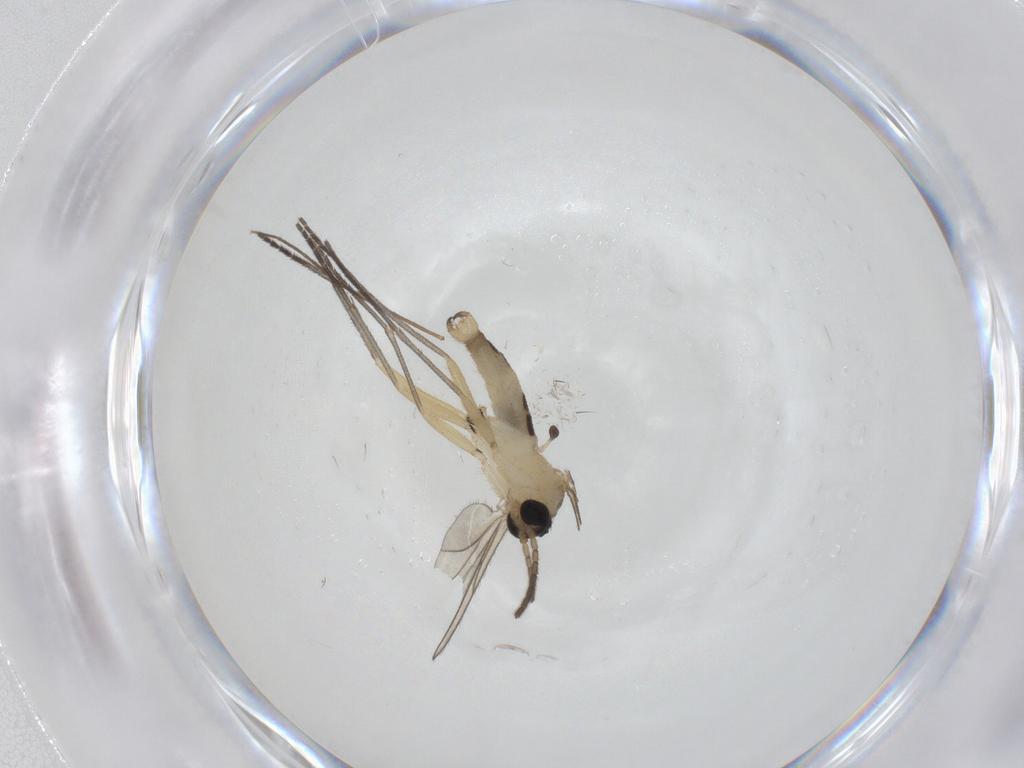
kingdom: Animalia
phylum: Arthropoda
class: Insecta
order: Diptera
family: Sciaridae
